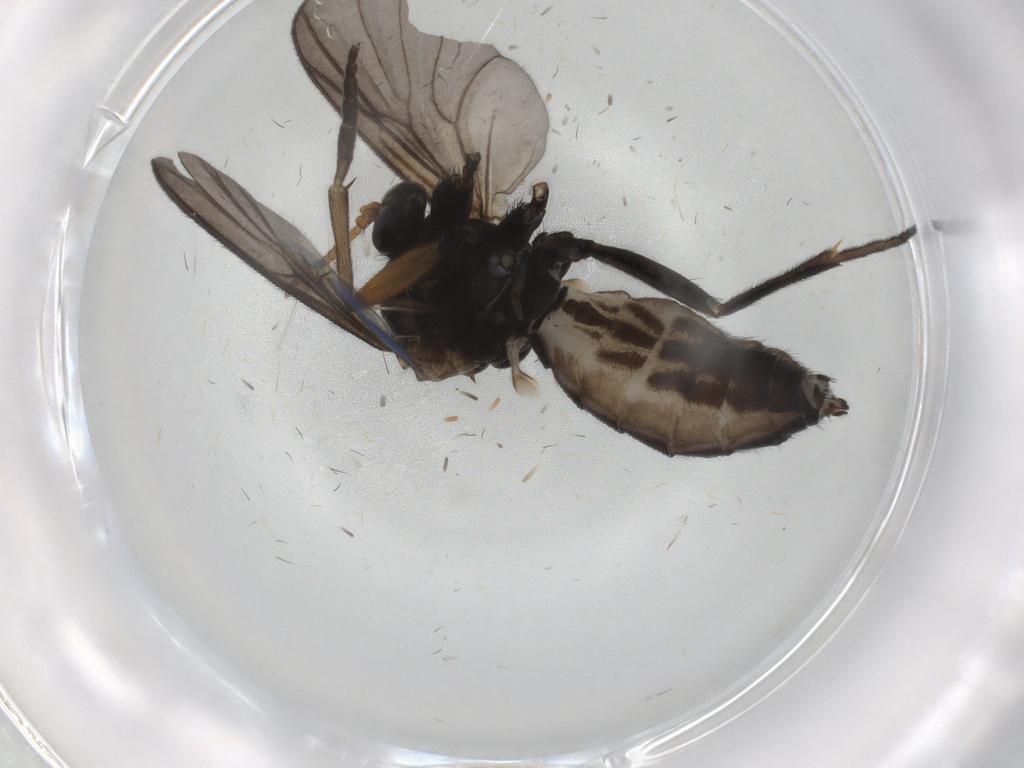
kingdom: Animalia
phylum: Arthropoda
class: Insecta
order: Diptera
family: Cecidomyiidae
